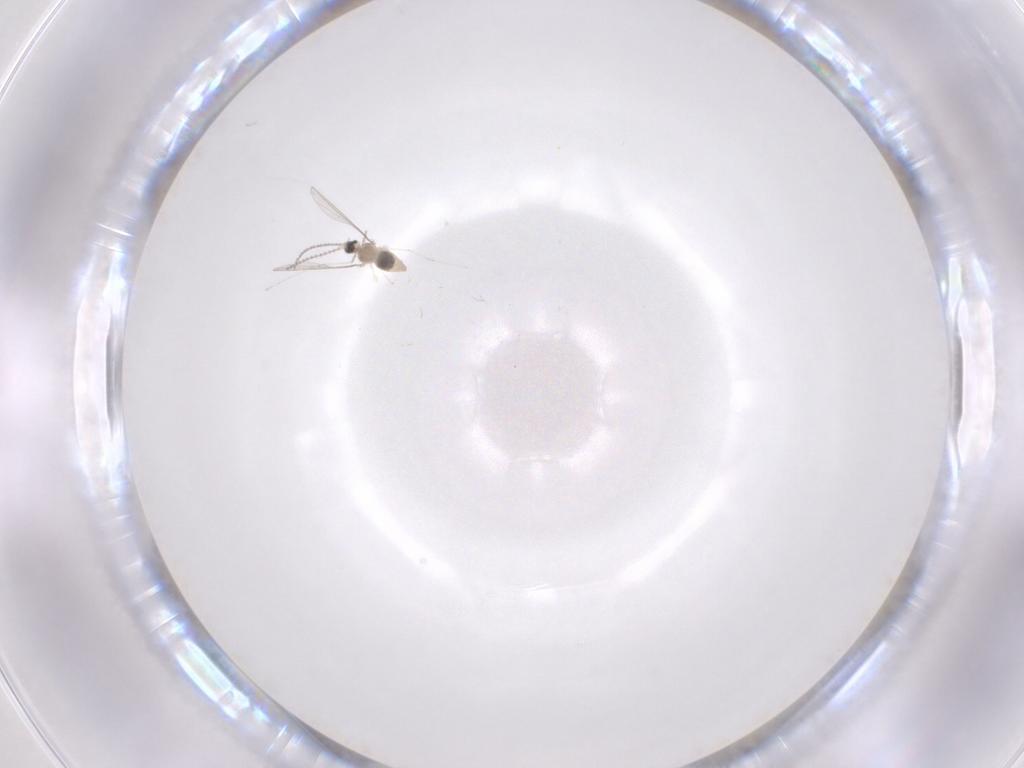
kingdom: Animalia
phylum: Arthropoda
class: Insecta
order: Diptera
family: Cecidomyiidae
